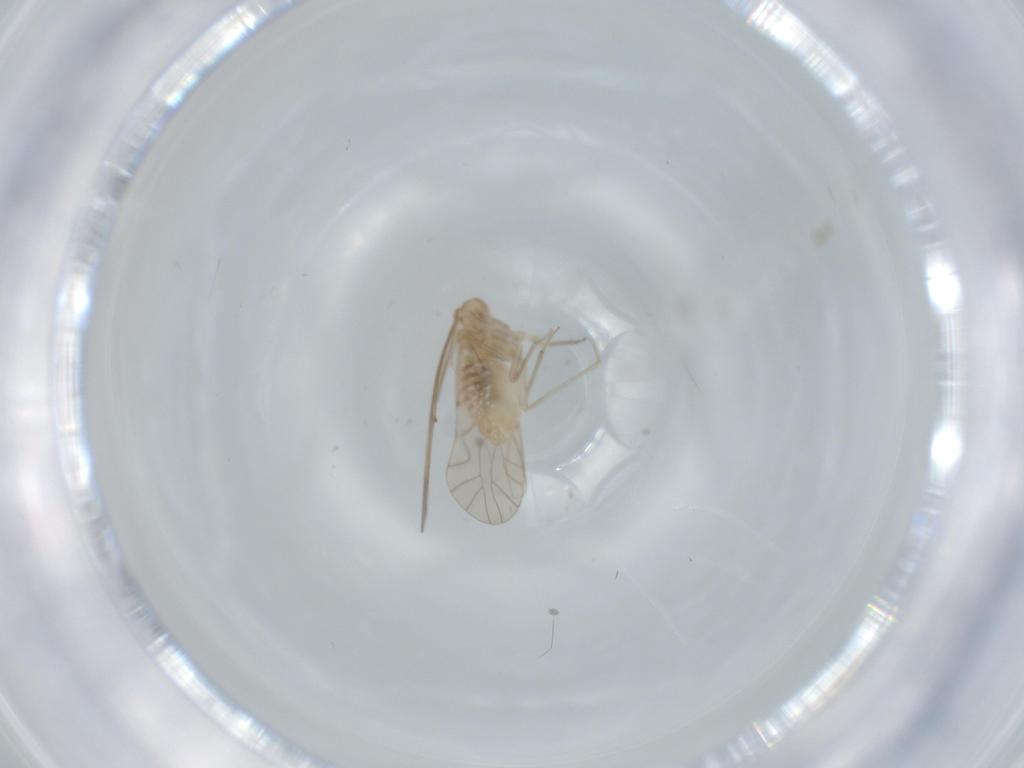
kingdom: Animalia
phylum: Arthropoda
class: Insecta
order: Psocodea
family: Lachesillidae
